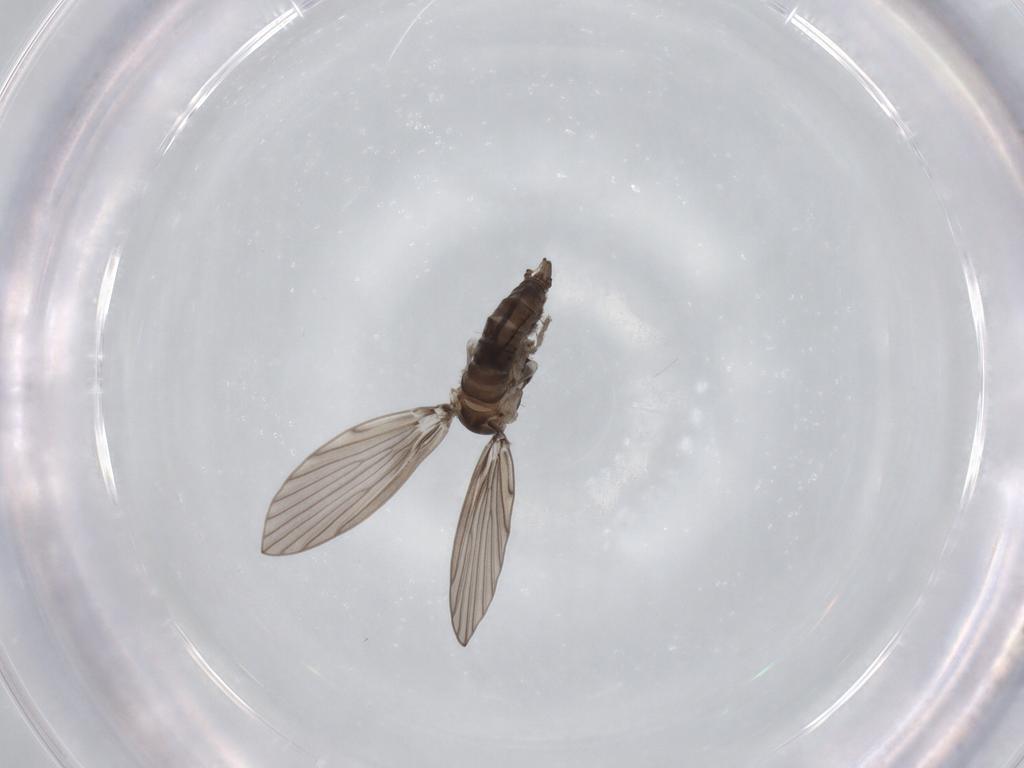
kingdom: Animalia
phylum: Arthropoda
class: Insecta
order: Diptera
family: Psychodidae
